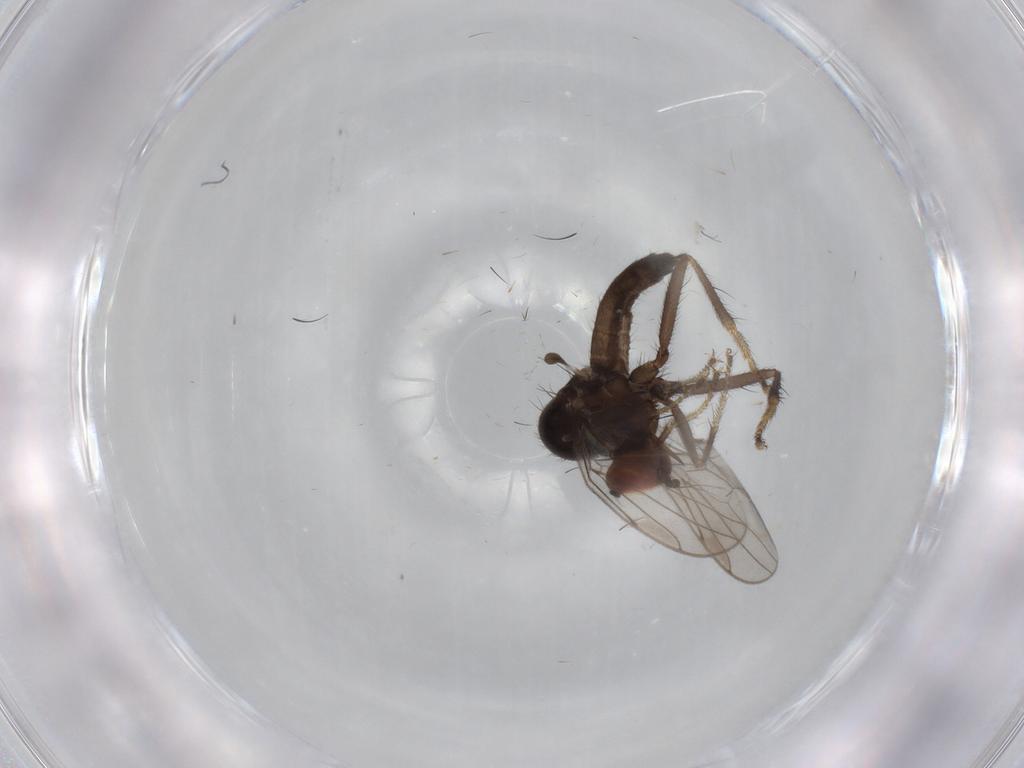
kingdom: Animalia
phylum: Arthropoda
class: Insecta
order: Diptera
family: Hybotidae
